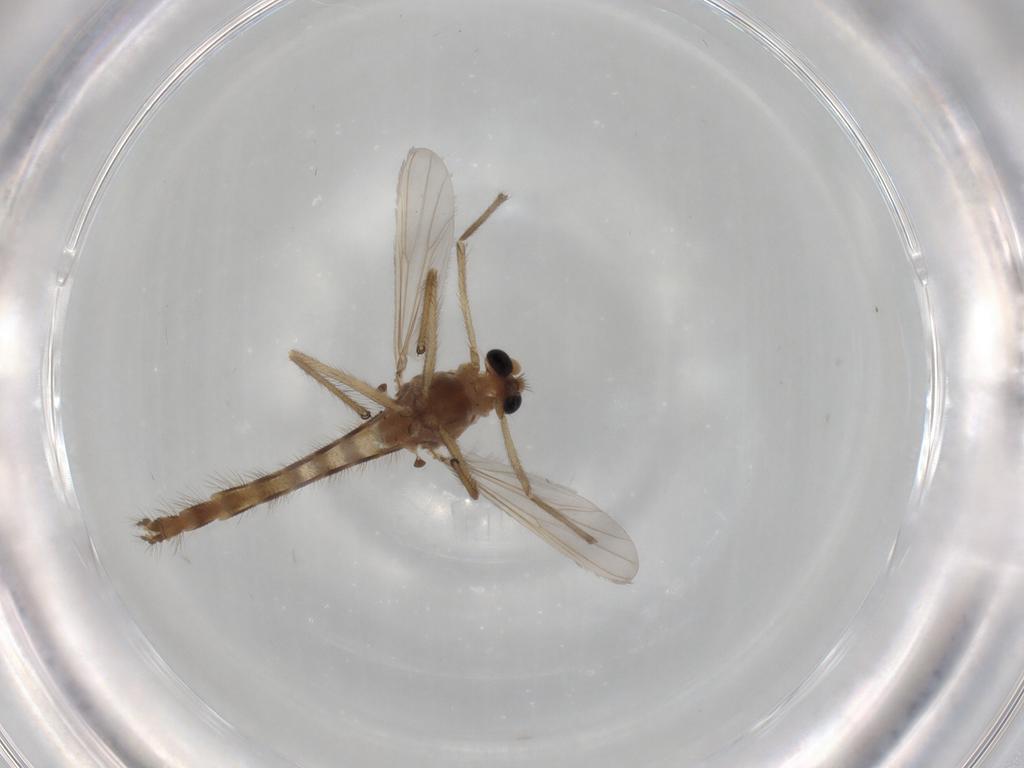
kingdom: Animalia
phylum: Arthropoda
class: Insecta
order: Diptera
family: Chironomidae
